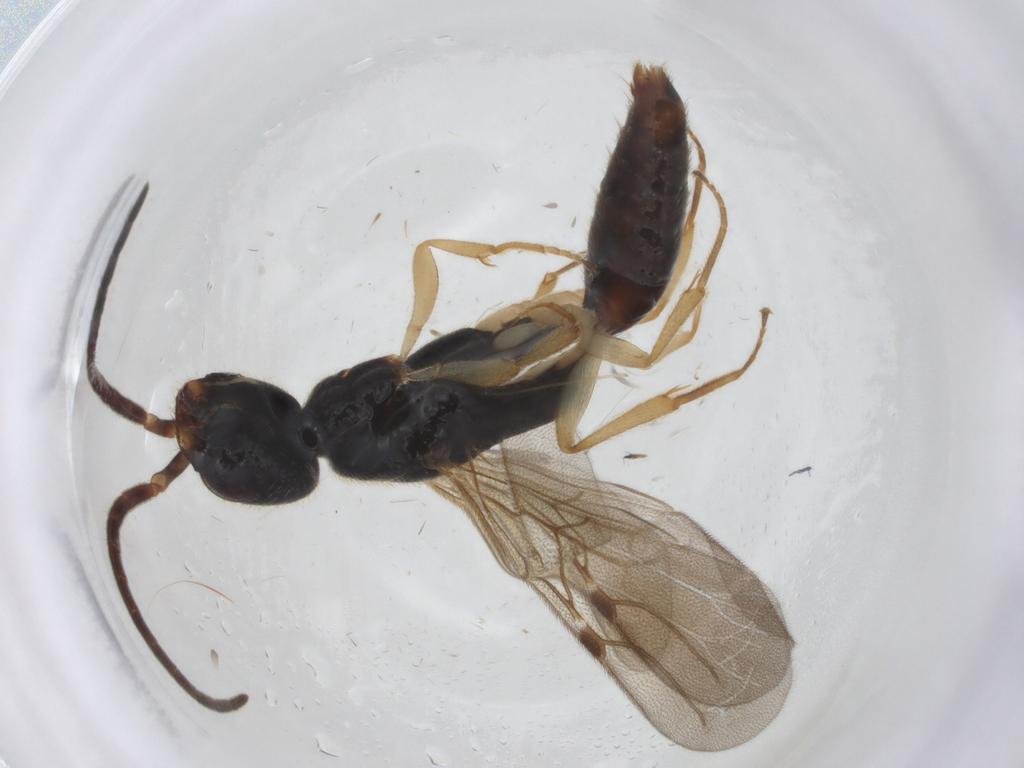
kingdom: Animalia
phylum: Arthropoda
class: Insecta
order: Hymenoptera
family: Bethylidae
